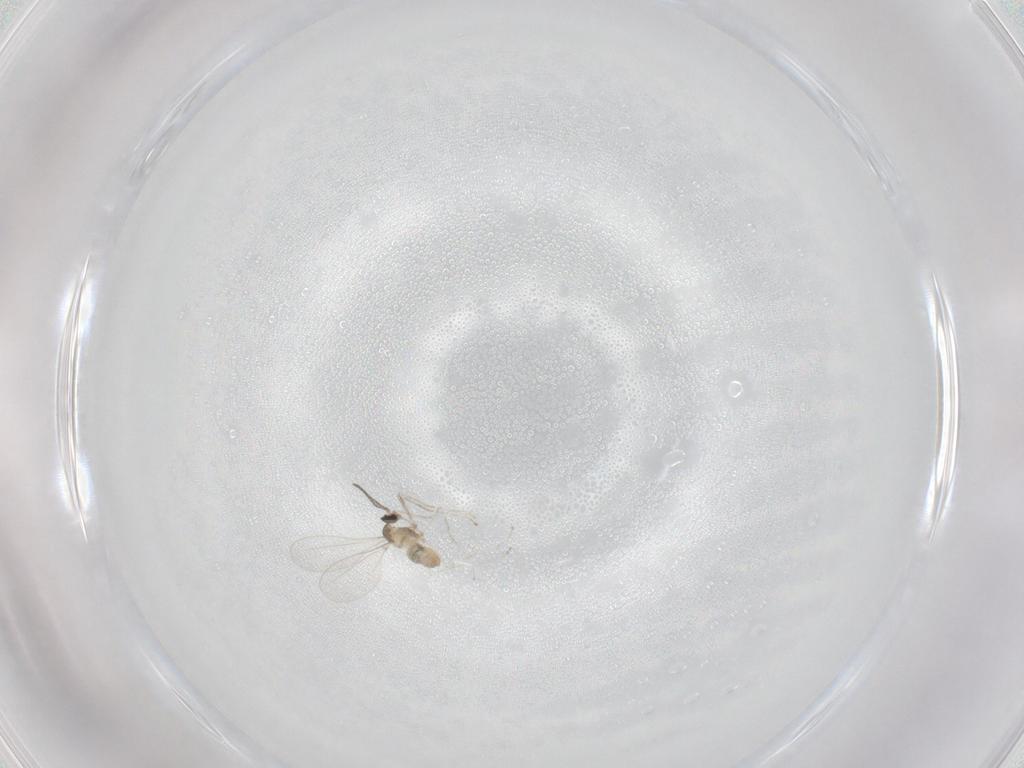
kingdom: Animalia
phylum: Arthropoda
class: Insecta
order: Diptera
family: Cecidomyiidae
